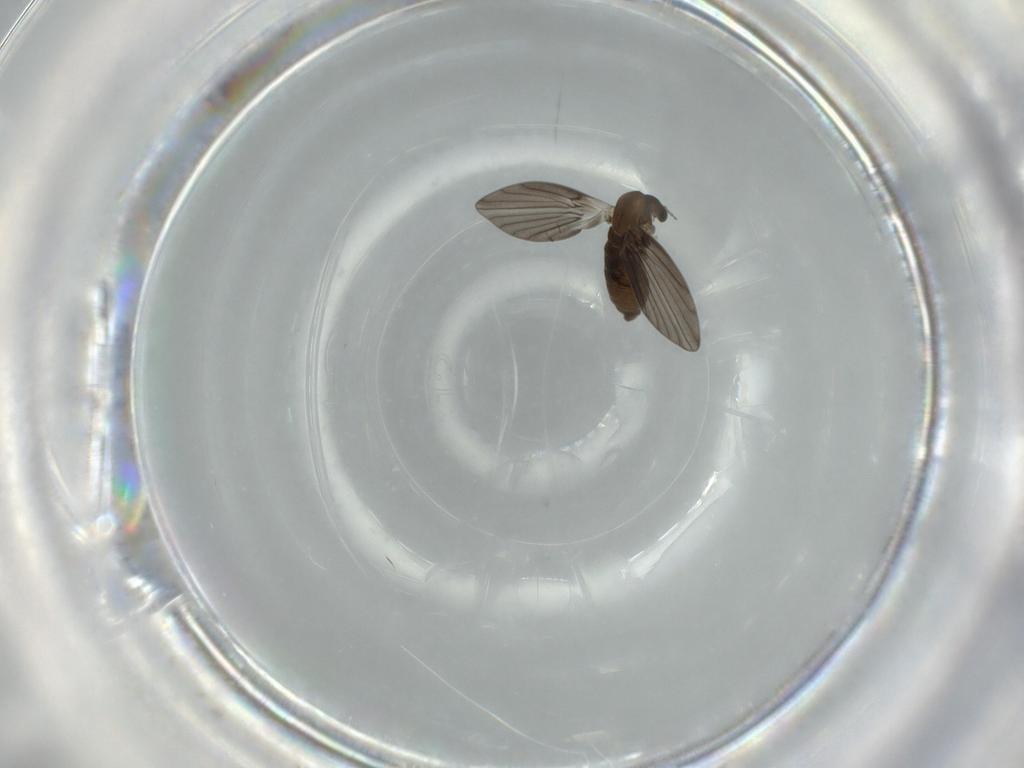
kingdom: Animalia
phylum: Arthropoda
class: Insecta
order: Diptera
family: Psychodidae
